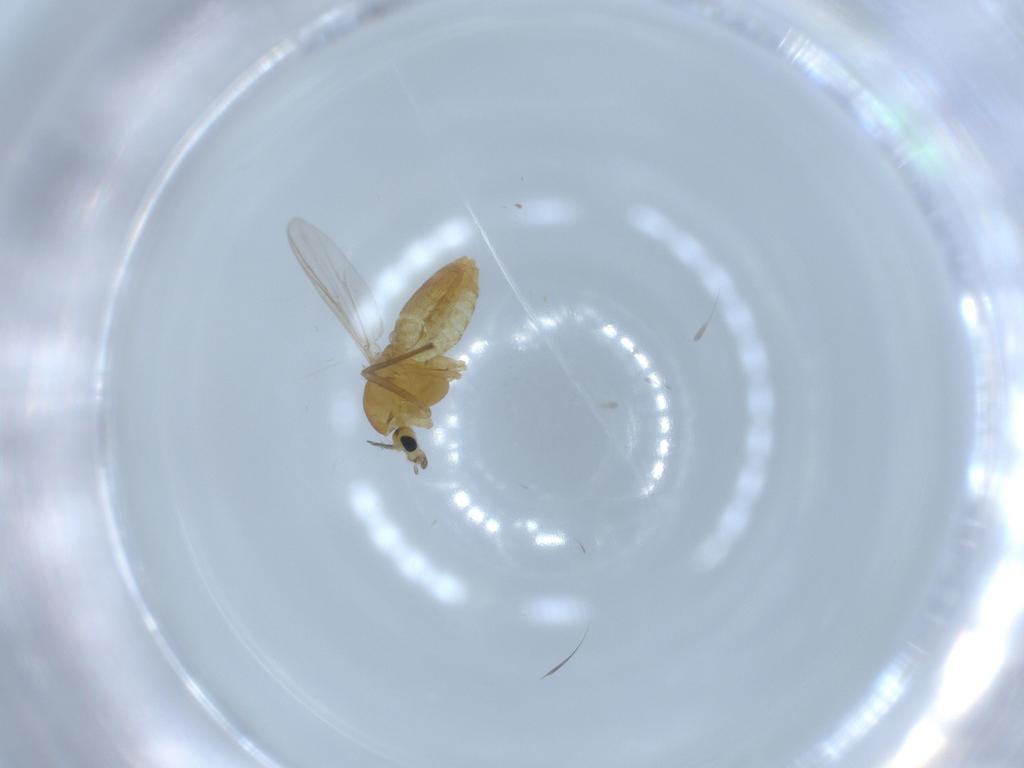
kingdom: Animalia
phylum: Arthropoda
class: Insecta
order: Diptera
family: Chironomidae
